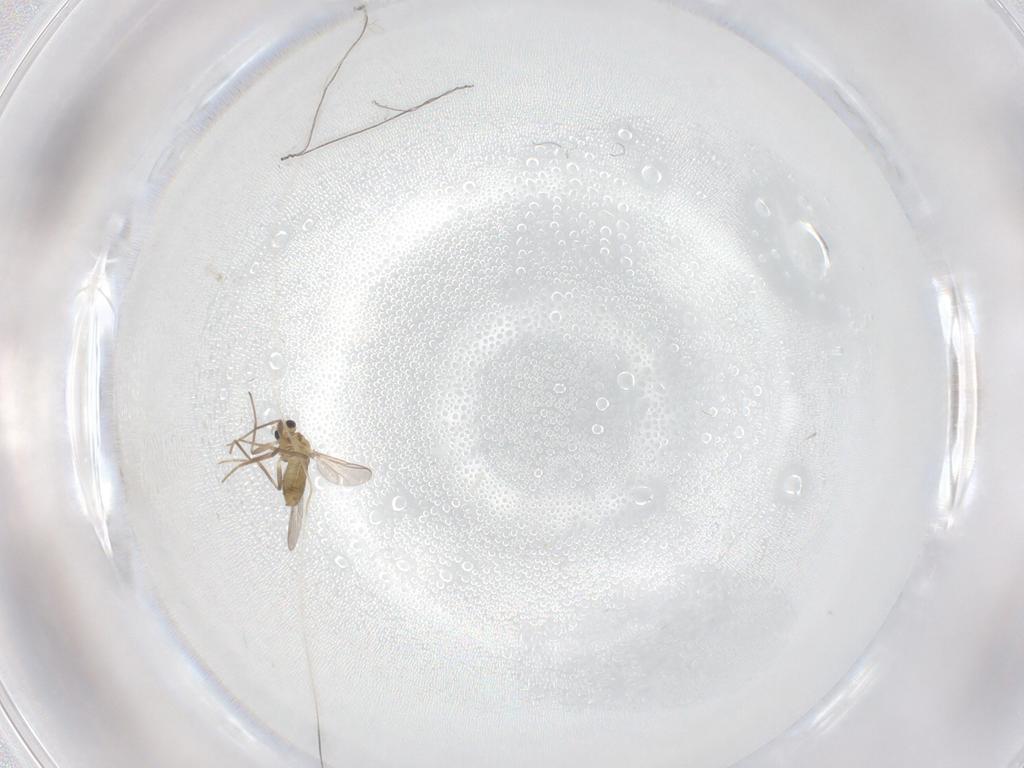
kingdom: Animalia
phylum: Arthropoda
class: Insecta
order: Diptera
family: Chironomidae
